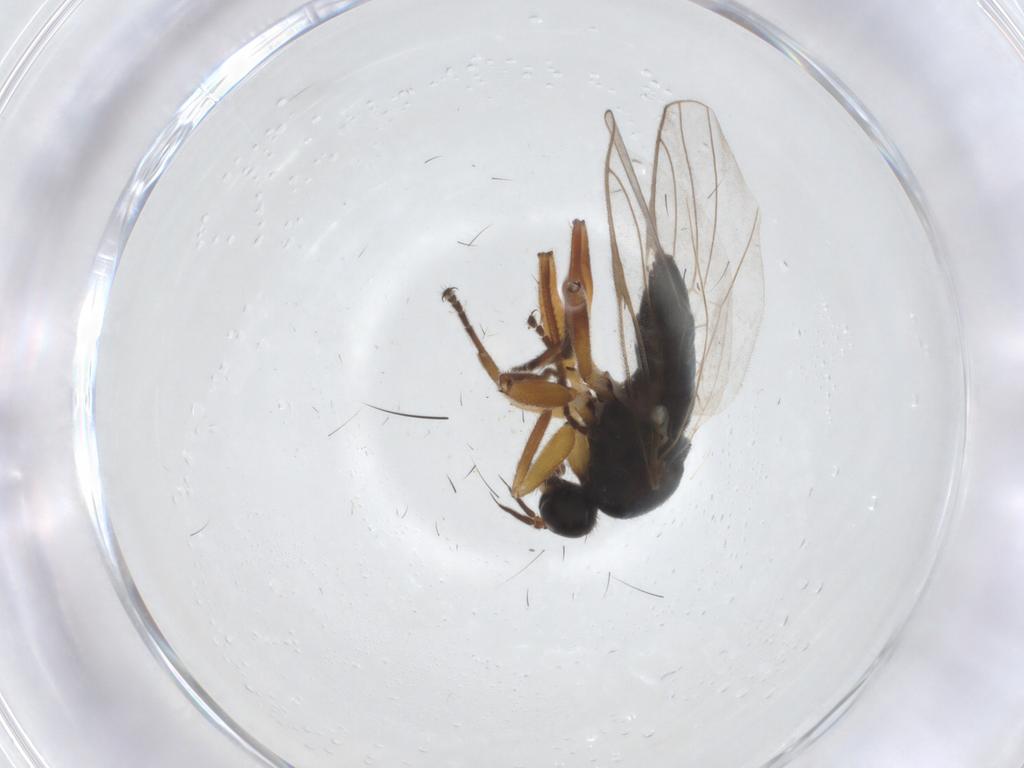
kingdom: Animalia
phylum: Arthropoda
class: Insecta
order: Diptera
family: Hybotidae
